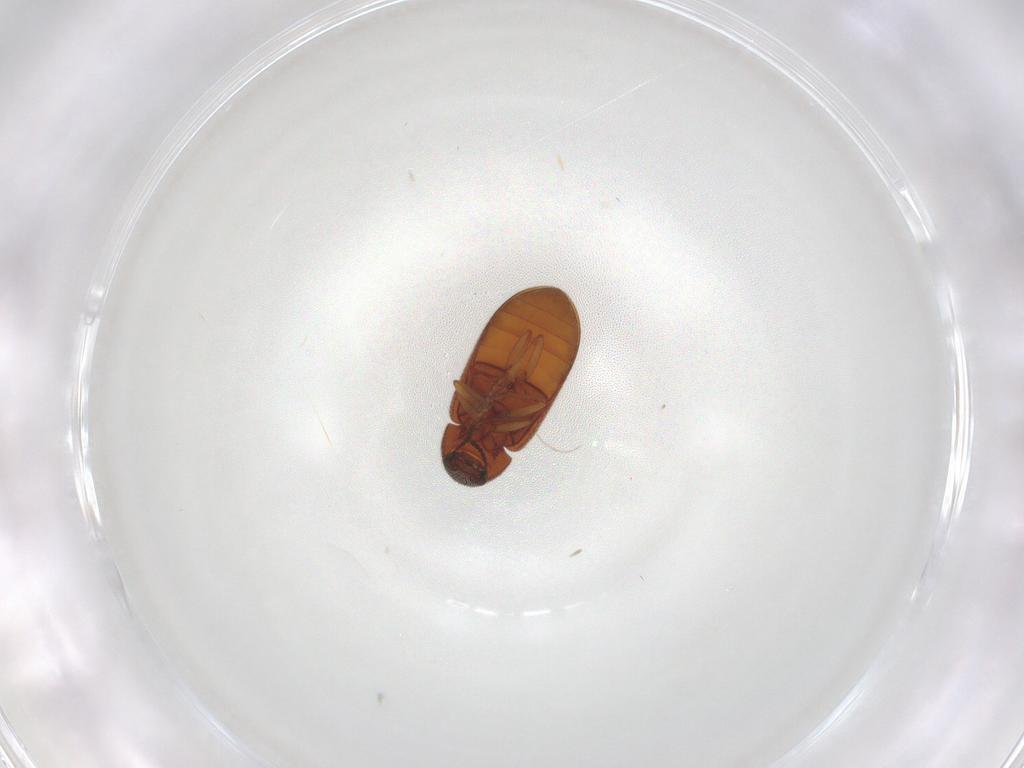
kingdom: Animalia
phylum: Arthropoda
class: Insecta
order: Coleoptera
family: Rhadalidae
